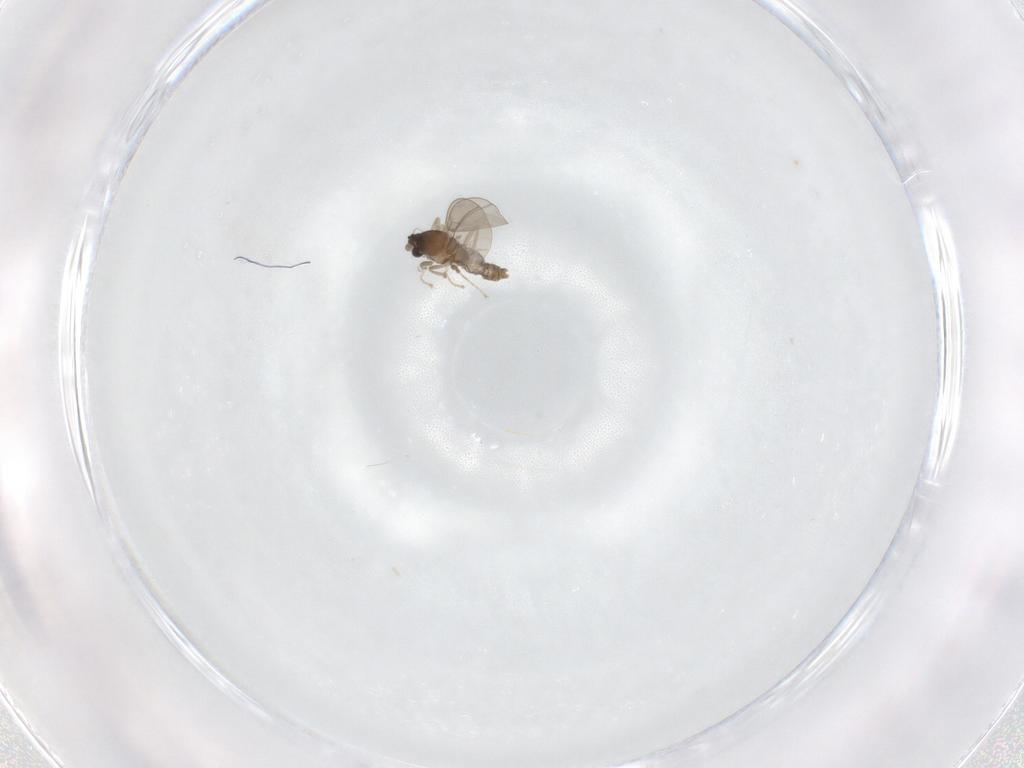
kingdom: Animalia
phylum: Arthropoda
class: Insecta
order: Diptera
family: Cecidomyiidae
